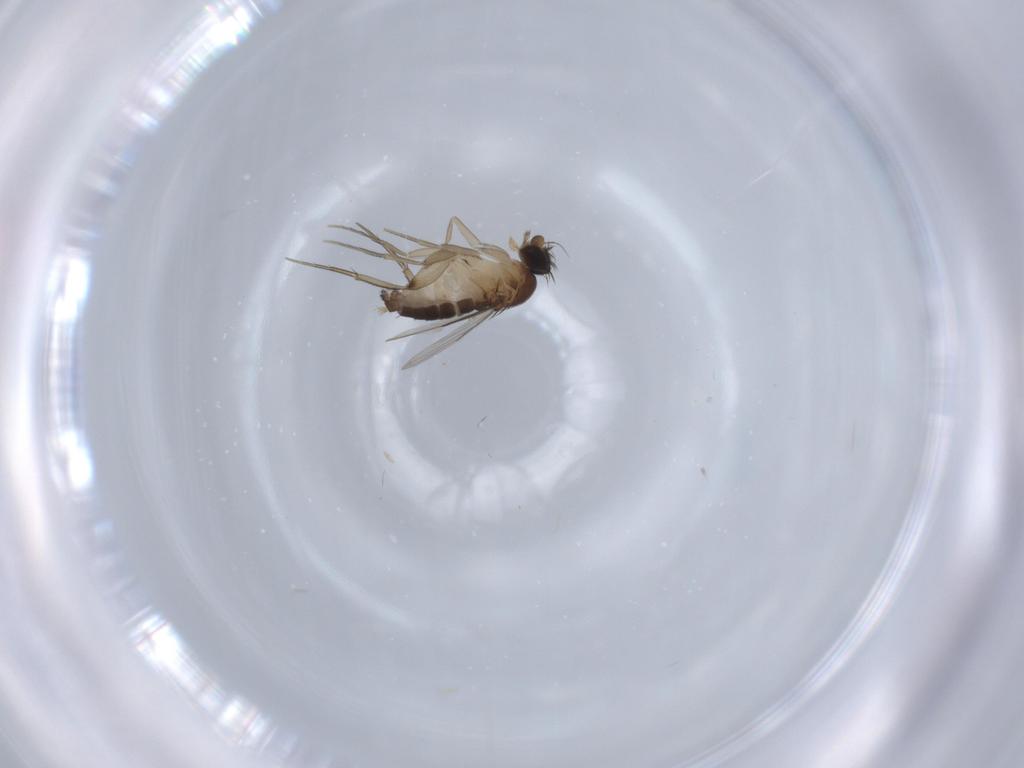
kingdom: Animalia
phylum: Arthropoda
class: Insecta
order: Diptera
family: Phoridae
